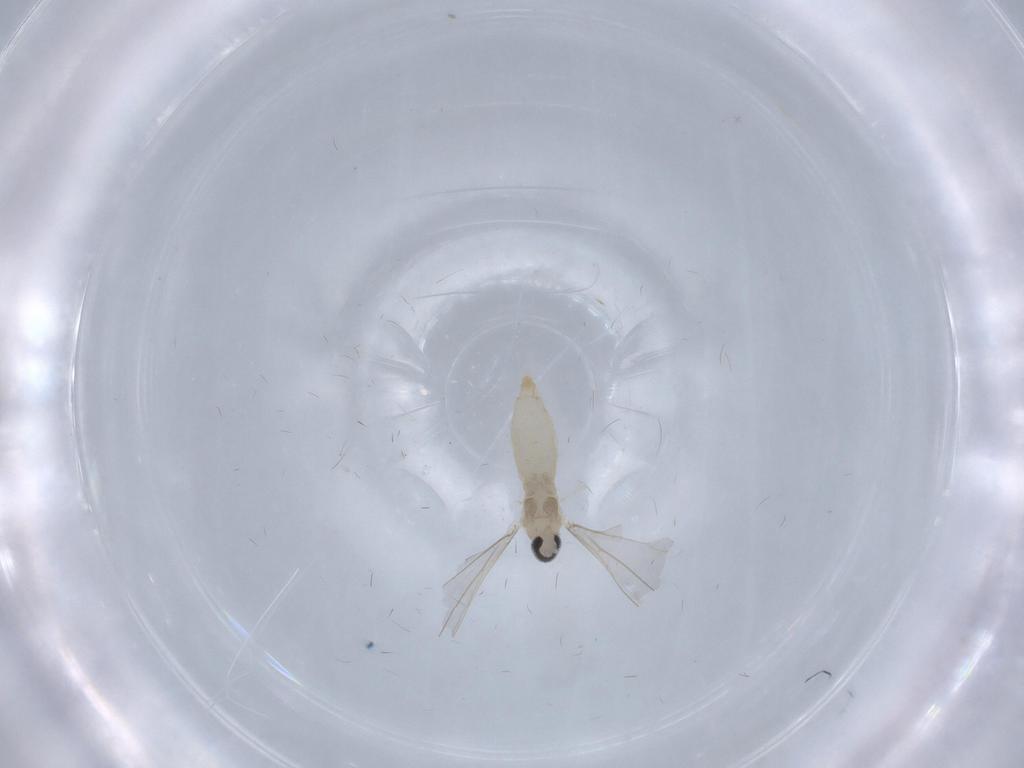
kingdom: Animalia
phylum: Arthropoda
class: Insecta
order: Diptera
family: Cecidomyiidae
